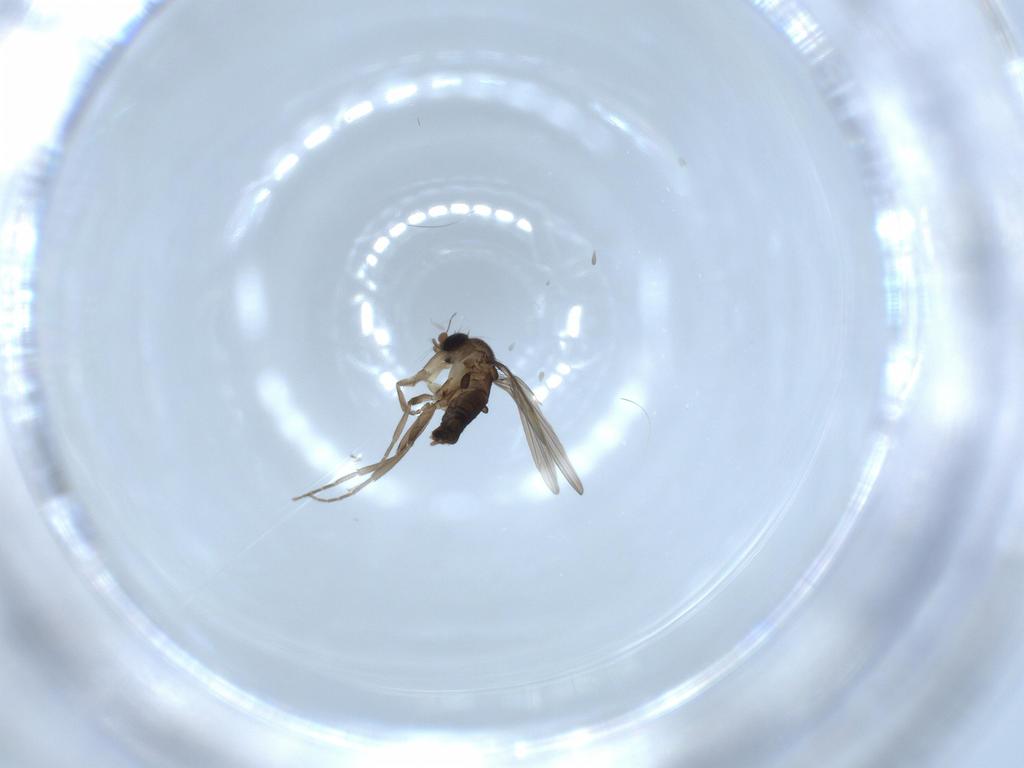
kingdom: Animalia
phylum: Arthropoda
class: Insecta
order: Diptera
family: Phoridae
